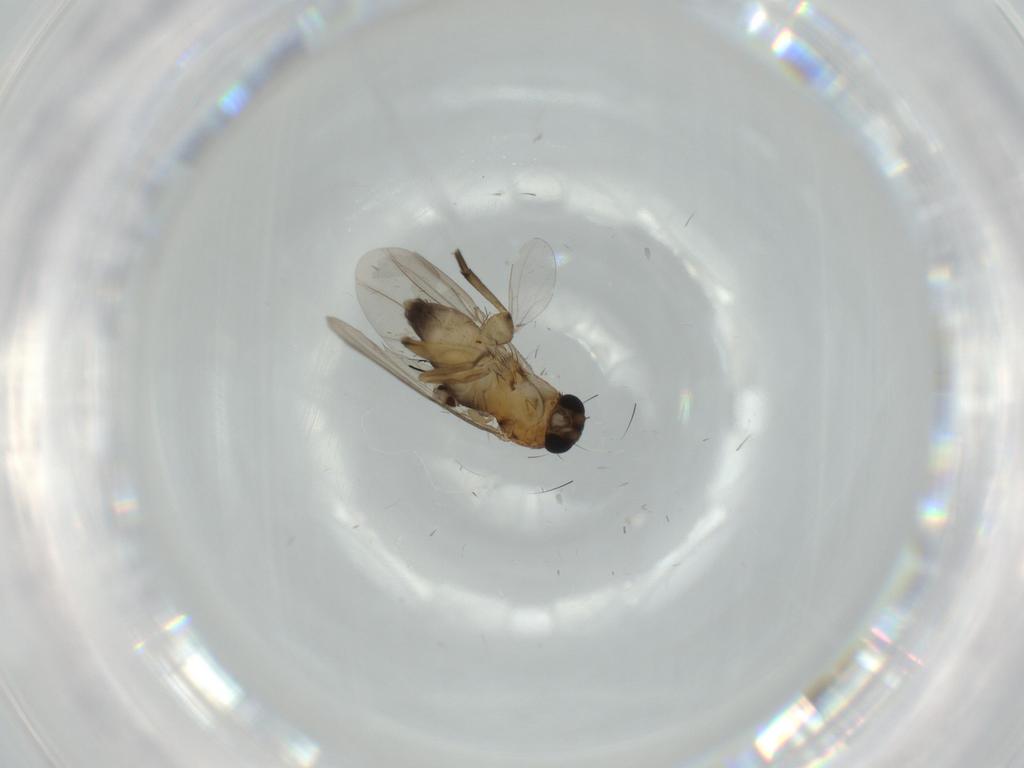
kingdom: Animalia
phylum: Arthropoda
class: Insecta
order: Diptera
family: Phoridae
